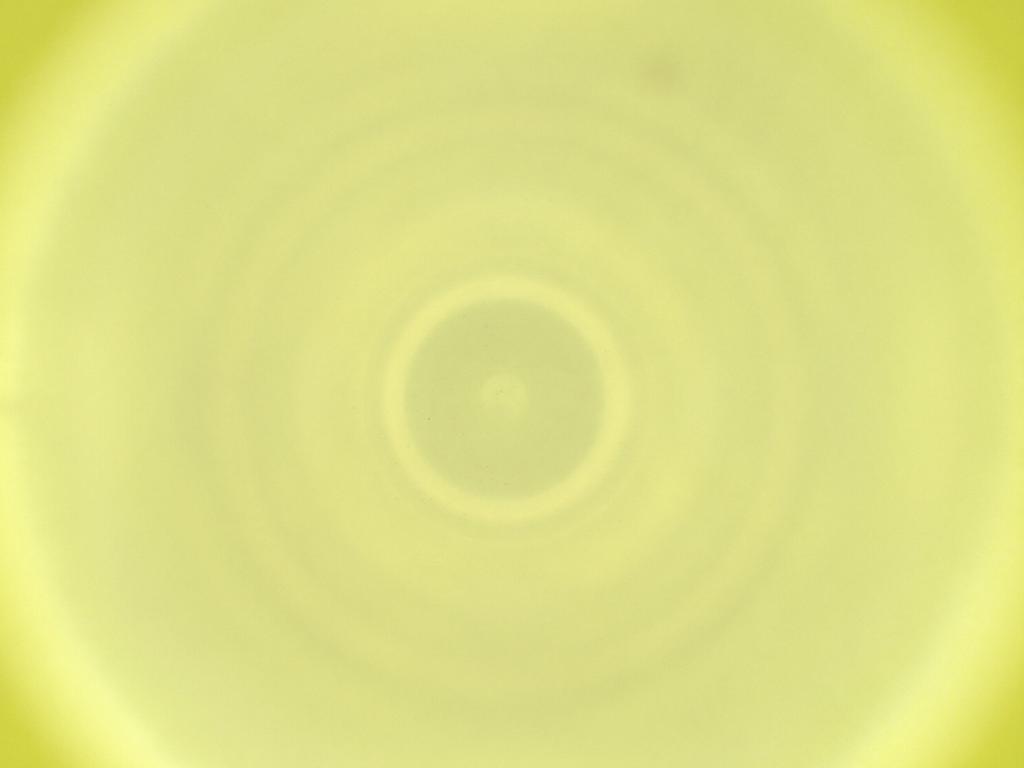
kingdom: Animalia
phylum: Arthropoda
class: Insecta
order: Diptera
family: Cecidomyiidae
